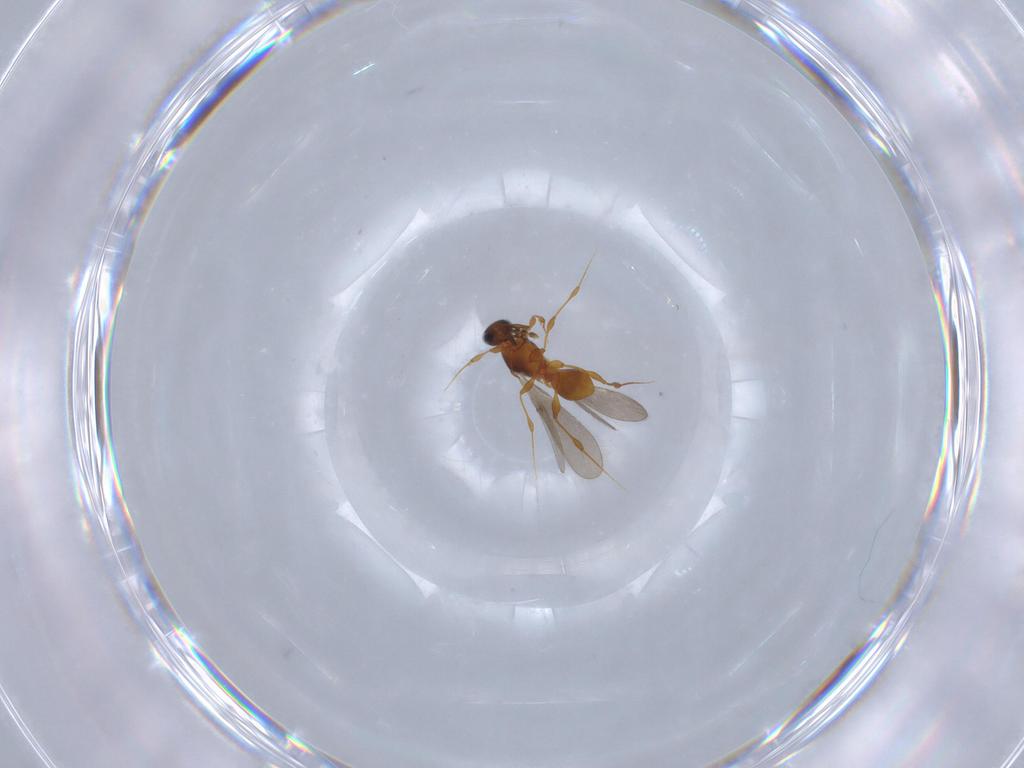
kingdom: Animalia
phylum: Arthropoda
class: Insecta
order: Hymenoptera
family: Platygastridae
